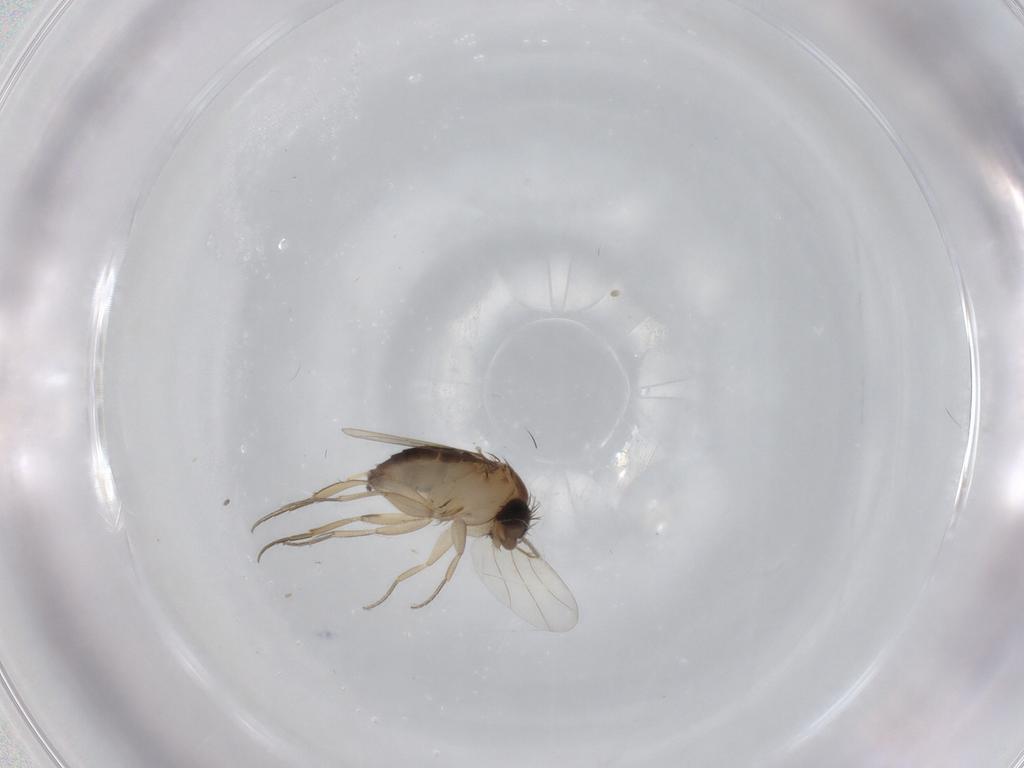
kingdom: Animalia
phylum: Arthropoda
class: Insecta
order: Diptera
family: Phoridae
